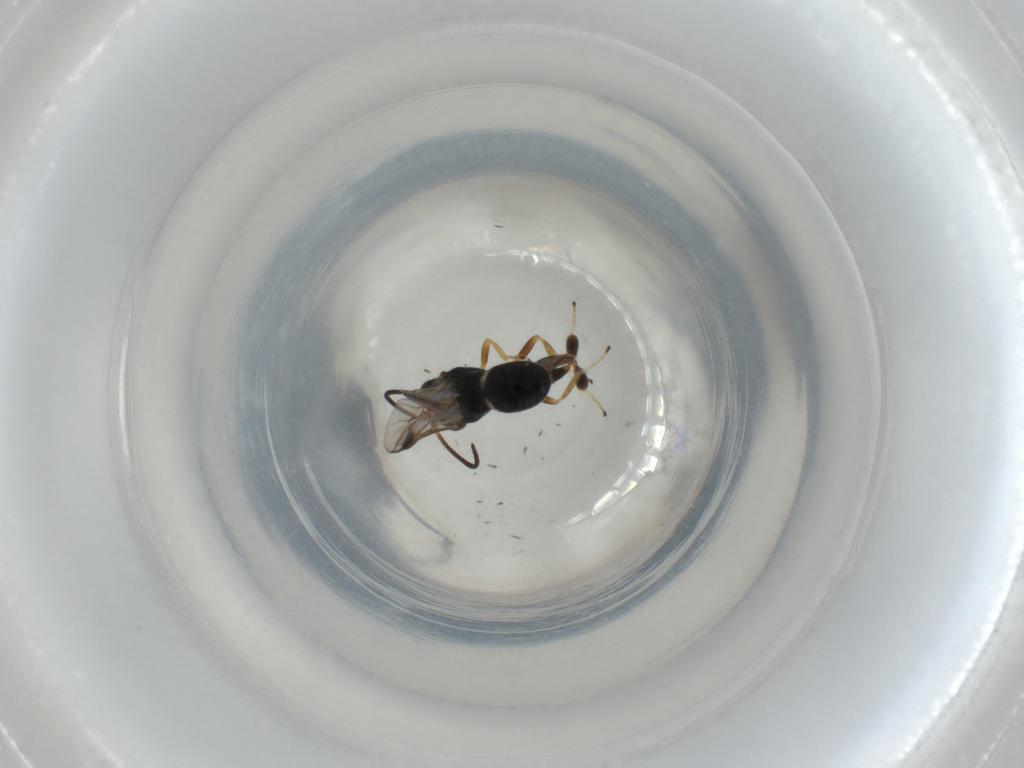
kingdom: Animalia
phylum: Arthropoda
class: Insecta
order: Hymenoptera
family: Braconidae
